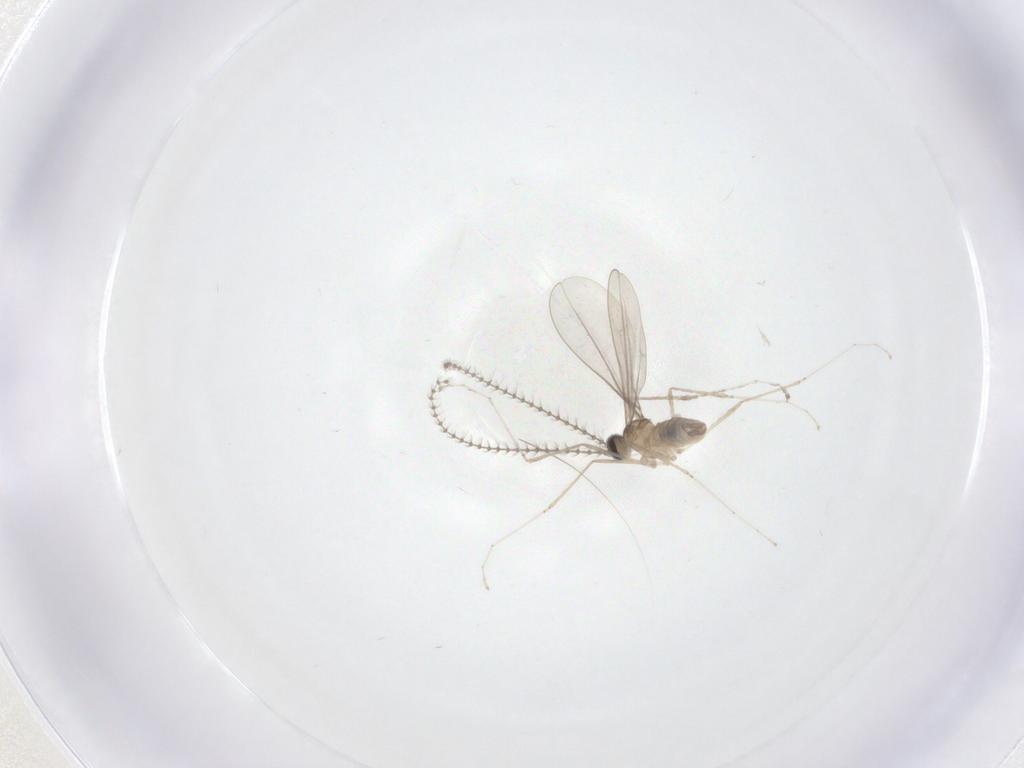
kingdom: Animalia
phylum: Arthropoda
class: Insecta
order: Diptera
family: Cecidomyiidae
